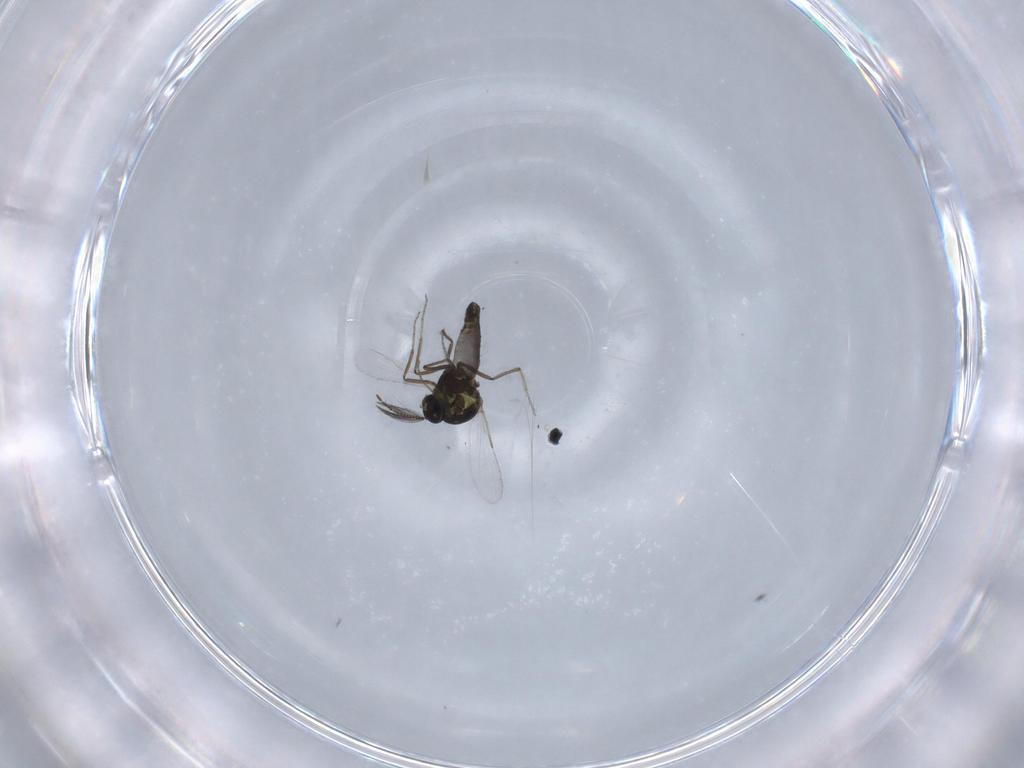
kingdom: Animalia
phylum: Arthropoda
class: Insecta
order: Diptera
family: Ceratopogonidae
